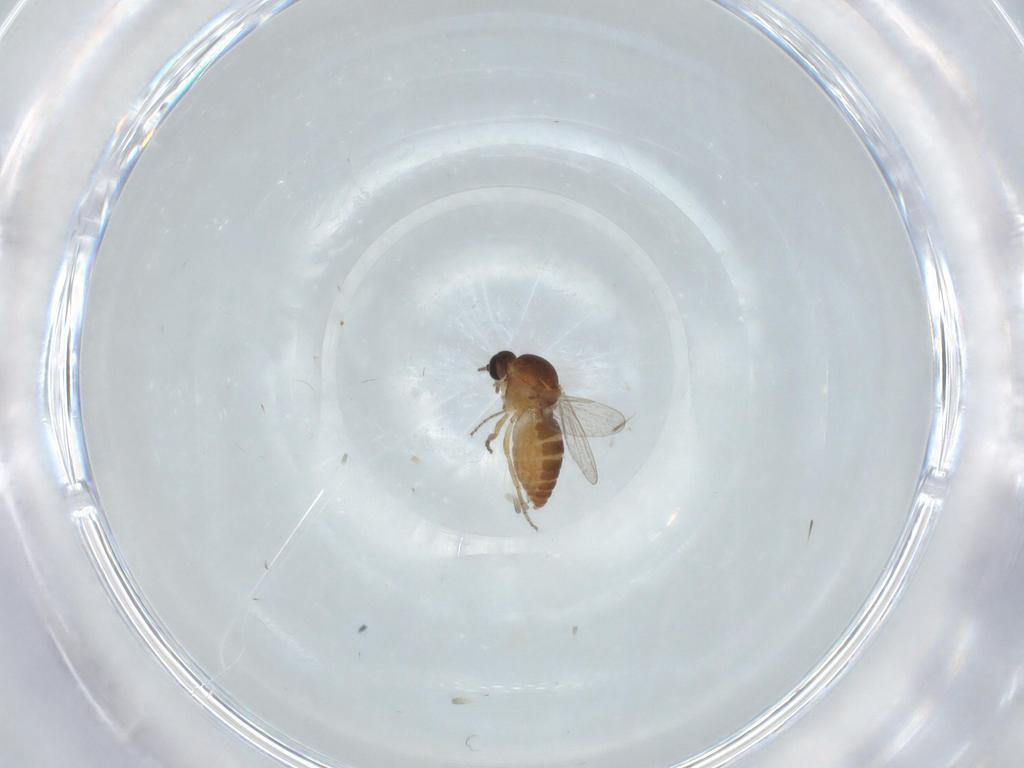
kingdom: Animalia
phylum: Arthropoda
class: Insecta
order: Diptera
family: Ceratopogonidae
